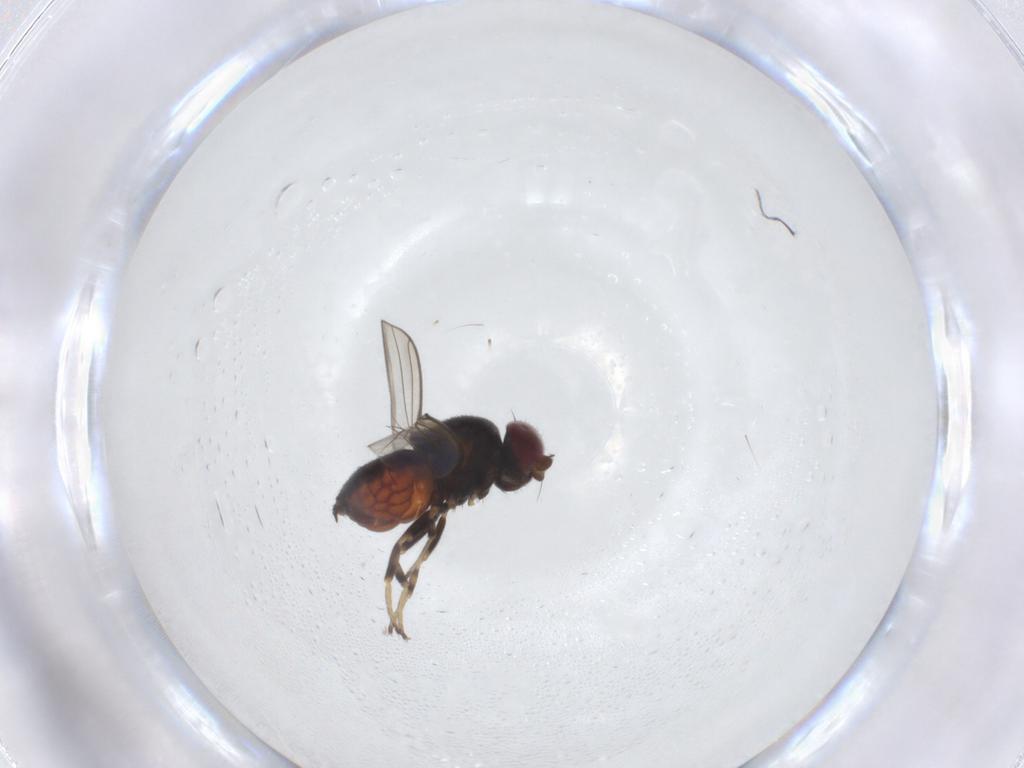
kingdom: Animalia
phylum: Arthropoda
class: Insecta
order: Diptera
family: Chloropidae
